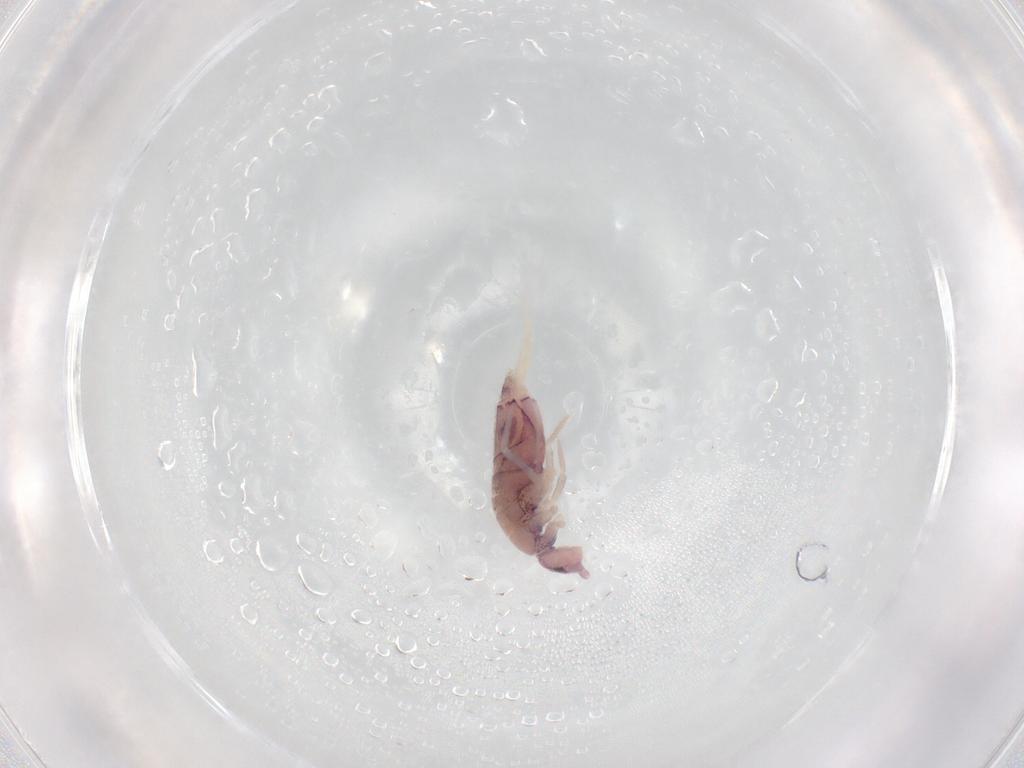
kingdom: Animalia
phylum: Arthropoda
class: Collembola
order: Entomobryomorpha
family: Entomobryidae
